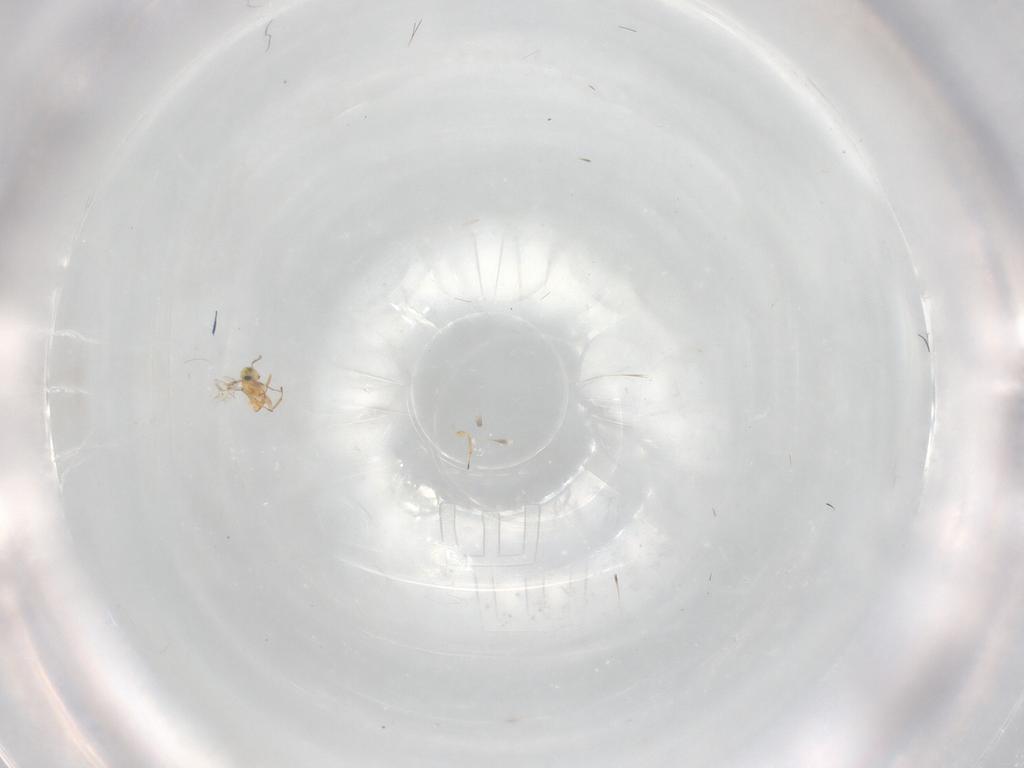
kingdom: Animalia
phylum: Arthropoda
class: Insecta
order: Hymenoptera
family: Trichogrammatidae
